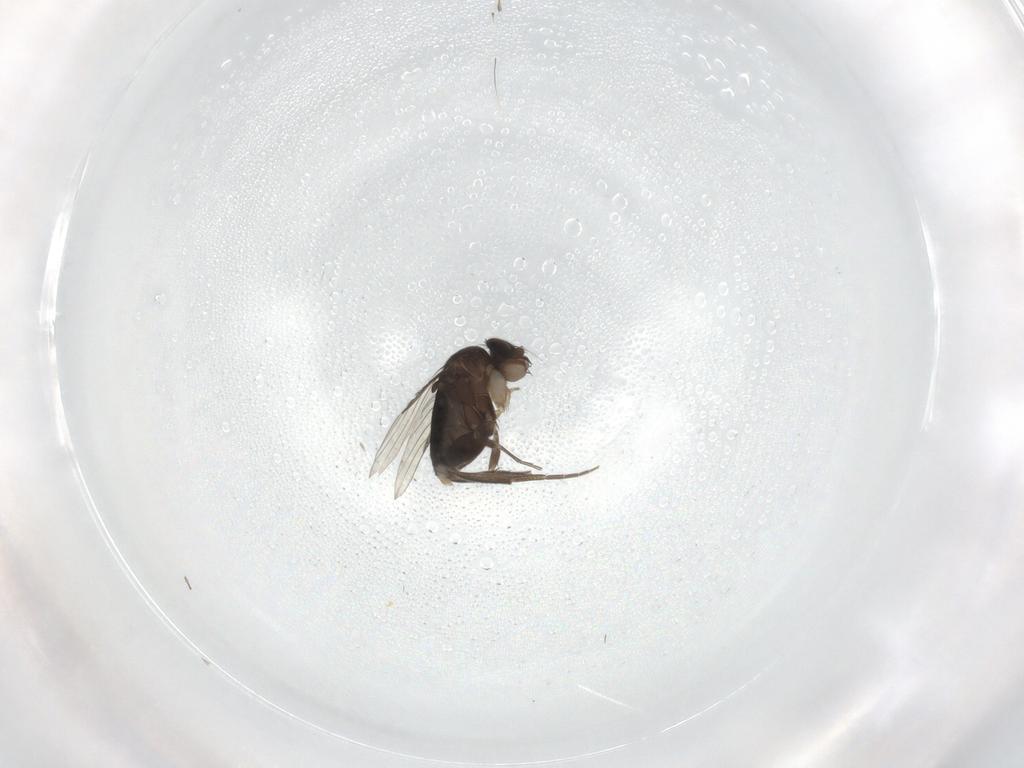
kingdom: Animalia
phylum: Arthropoda
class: Insecta
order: Diptera
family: Phoridae
